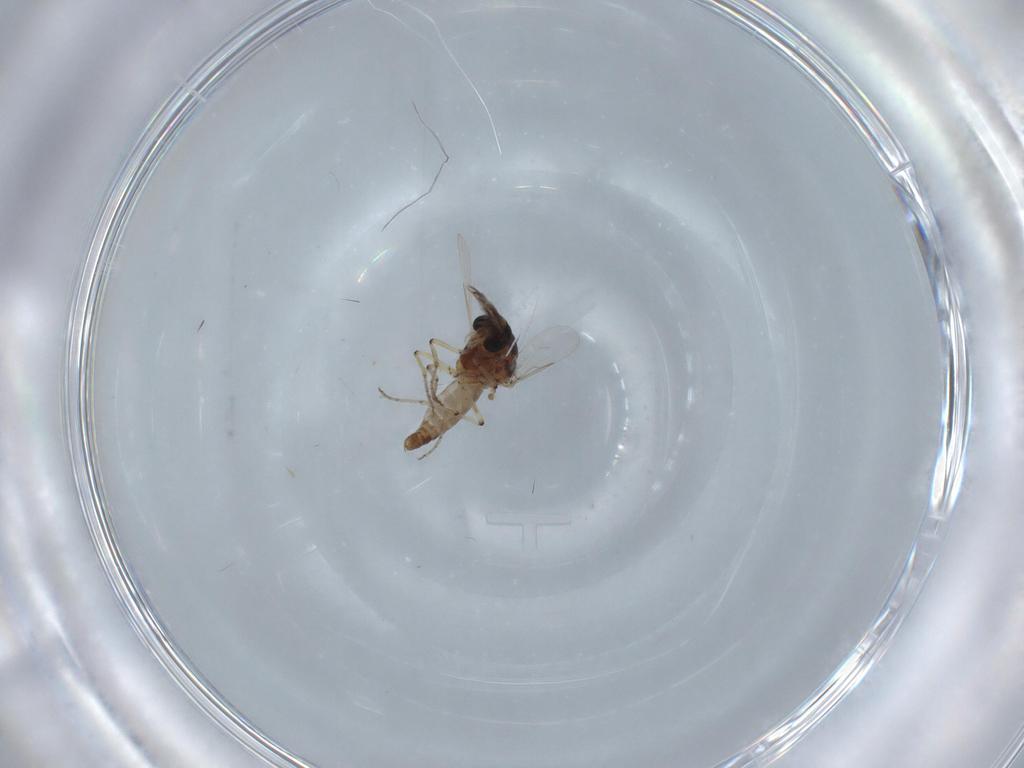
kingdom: Animalia
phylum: Arthropoda
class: Insecta
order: Diptera
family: Ceratopogonidae
